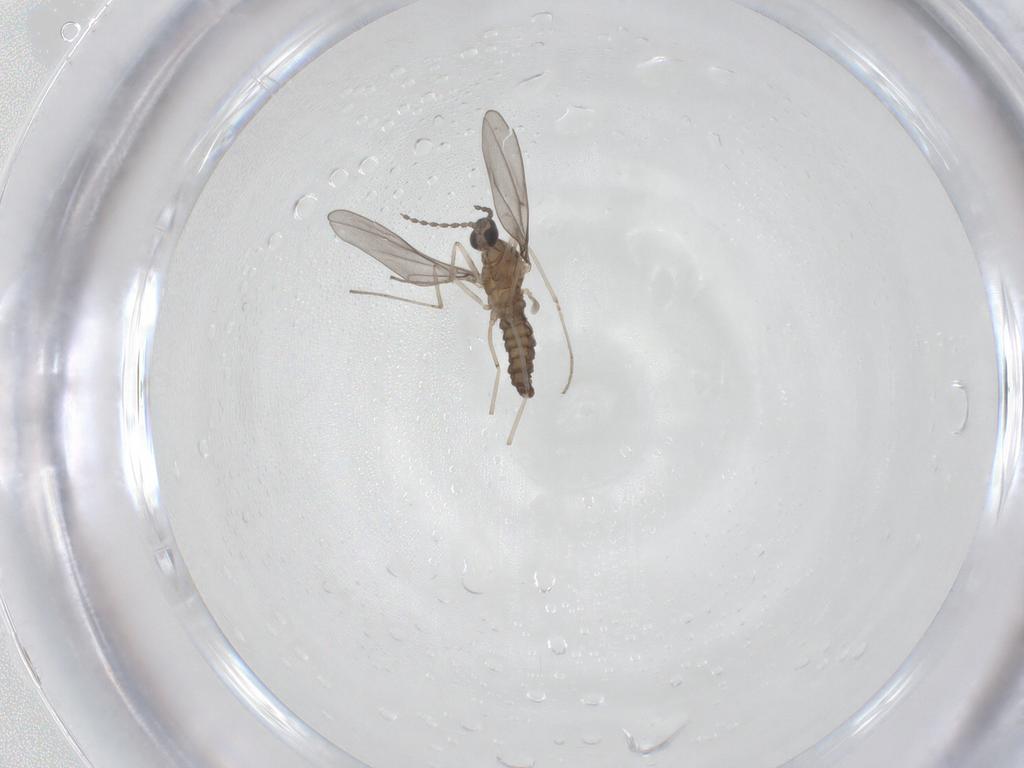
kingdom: Animalia
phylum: Arthropoda
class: Insecta
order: Diptera
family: Cecidomyiidae
